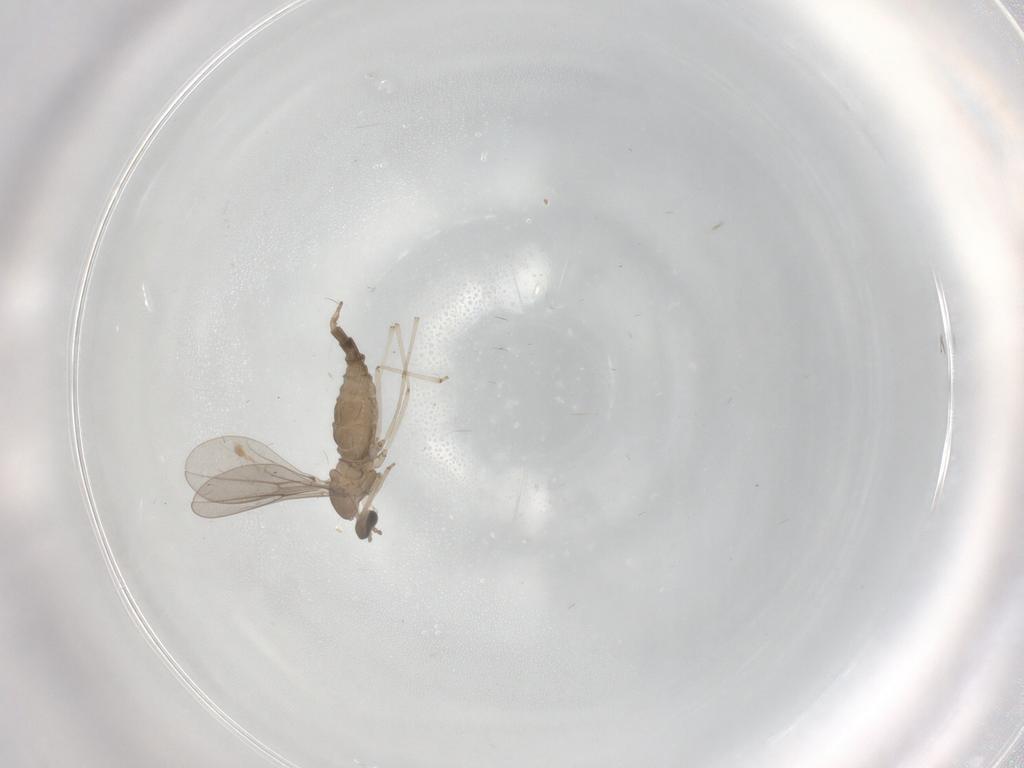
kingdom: Animalia
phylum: Arthropoda
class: Insecta
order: Diptera
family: Cecidomyiidae
